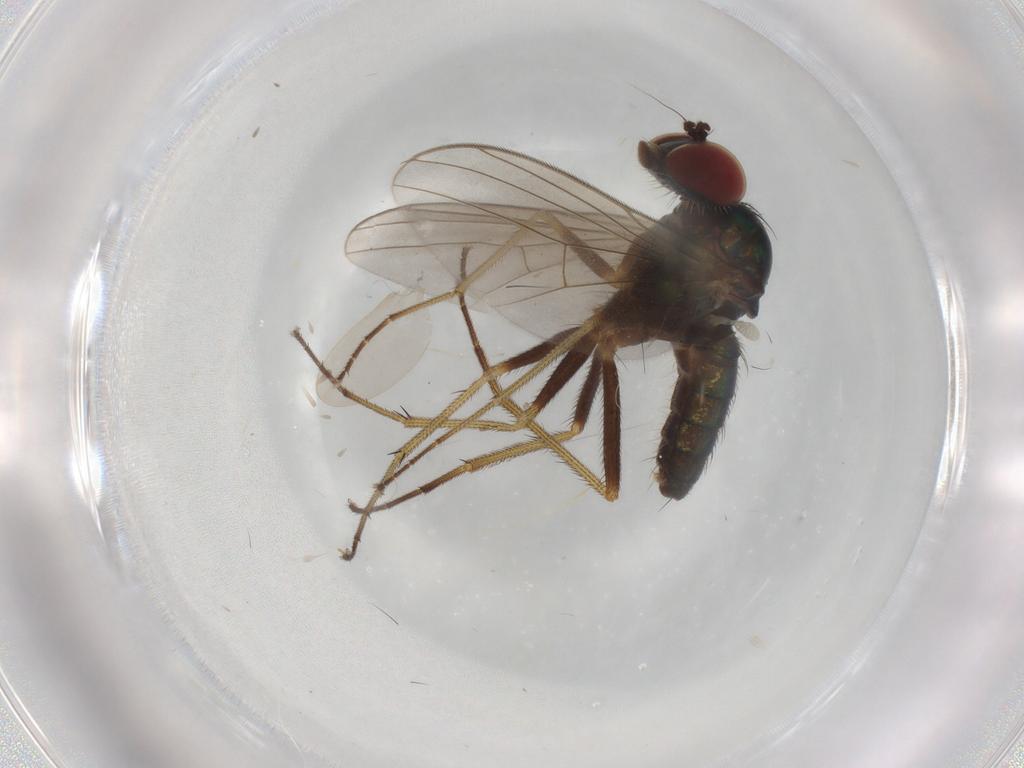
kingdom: Animalia
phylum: Arthropoda
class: Insecta
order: Diptera
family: Dolichopodidae
